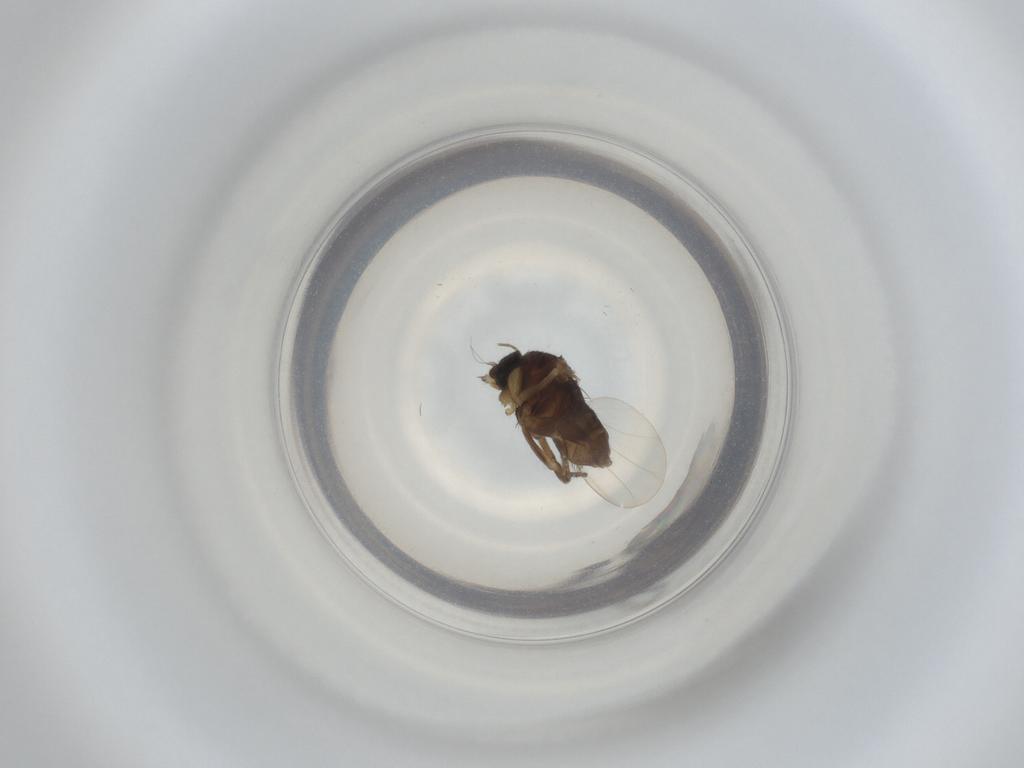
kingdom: Animalia
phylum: Arthropoda
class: Insecta
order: Diptera
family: Phoridae
